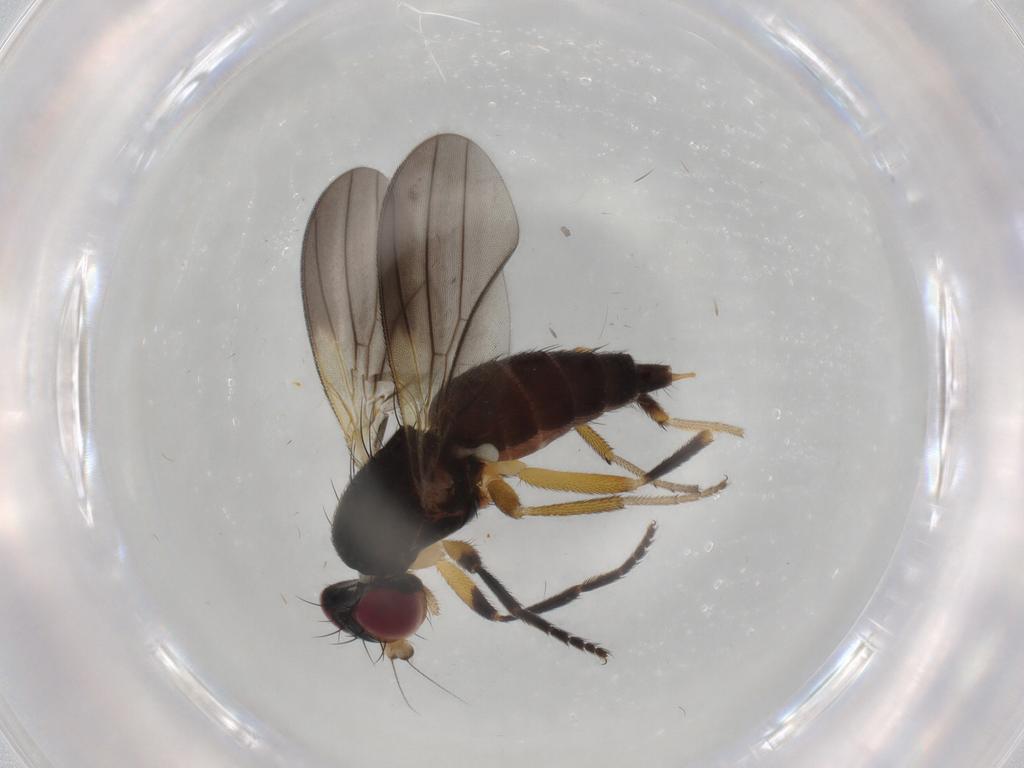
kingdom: Animalia
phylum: Arthropoda
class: Insecta
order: Diptera
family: Clusiidae
